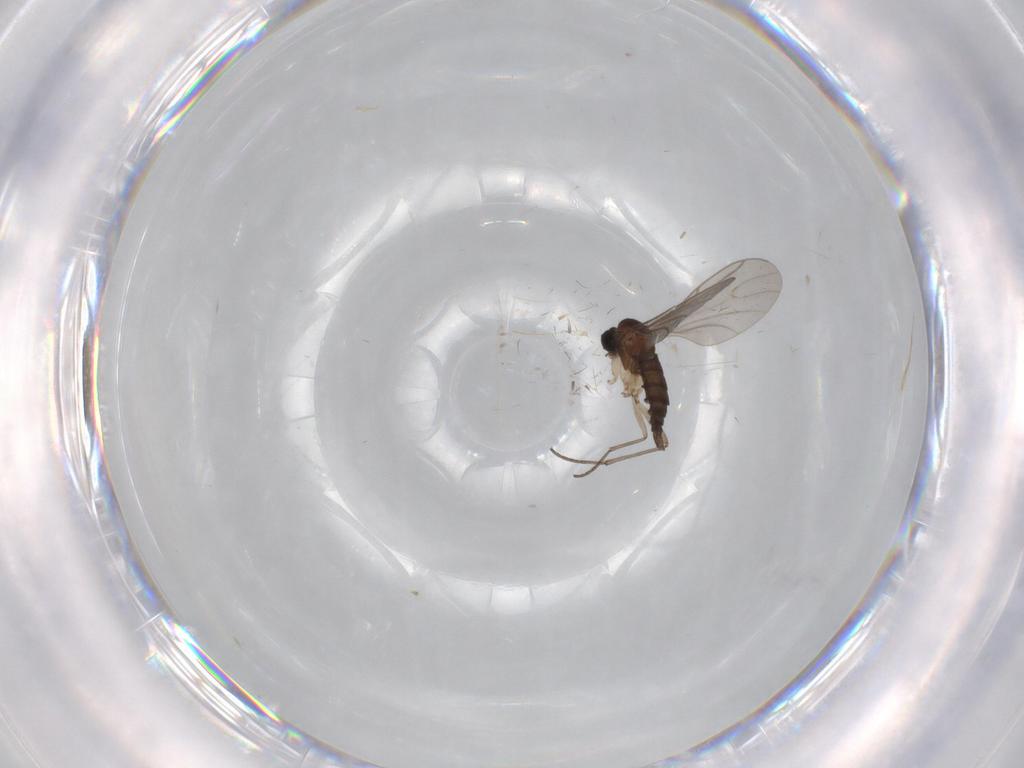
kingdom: Animalia
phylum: Arthropoda
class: Insecta
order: Diptera
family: Sciaridae
